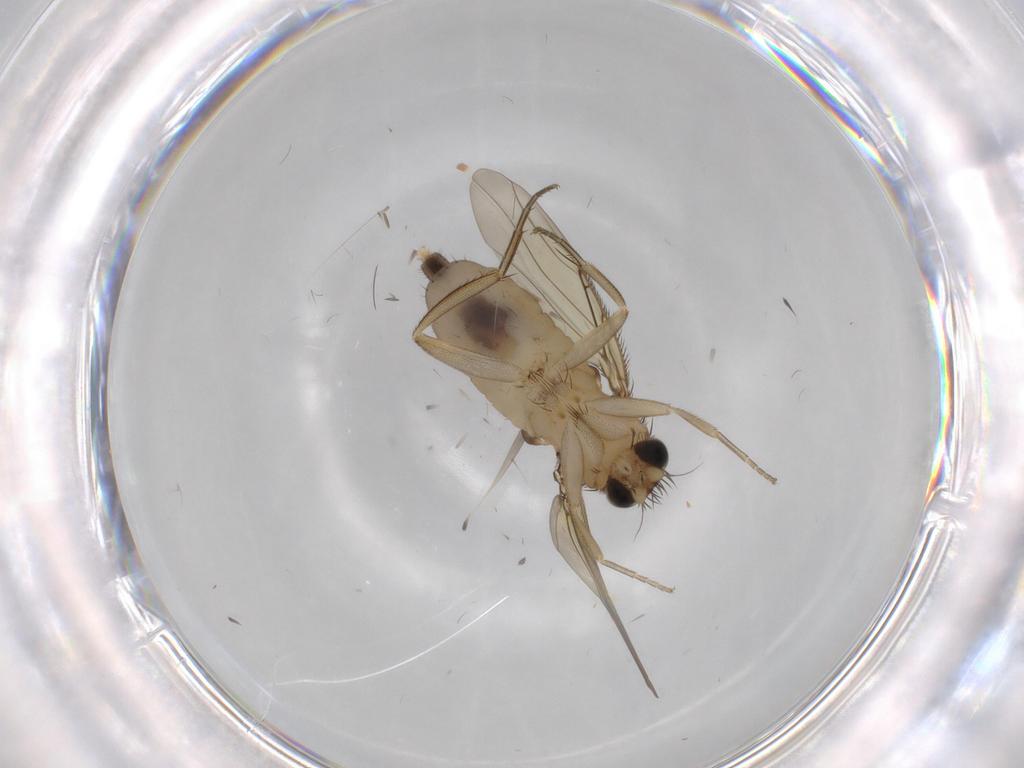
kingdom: Animalia
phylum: Arthropoda
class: Insecta
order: Diptera
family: Phoridae
